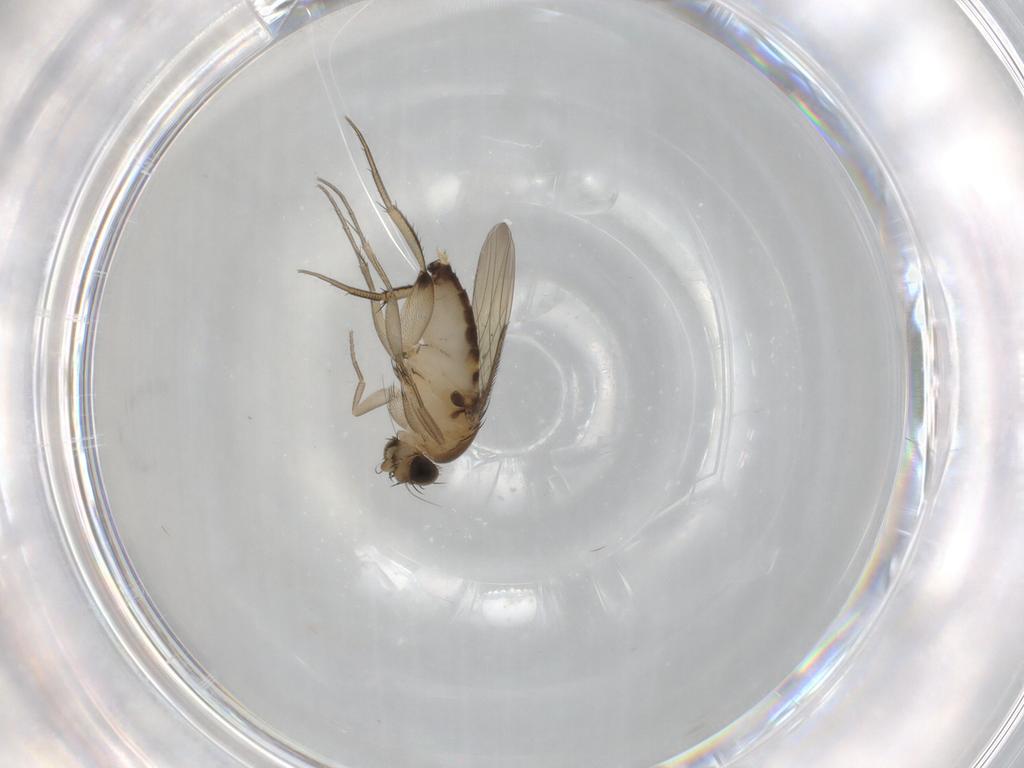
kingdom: Animalia
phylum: Arthropoda
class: Insecta
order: Diptera
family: Phoridae
